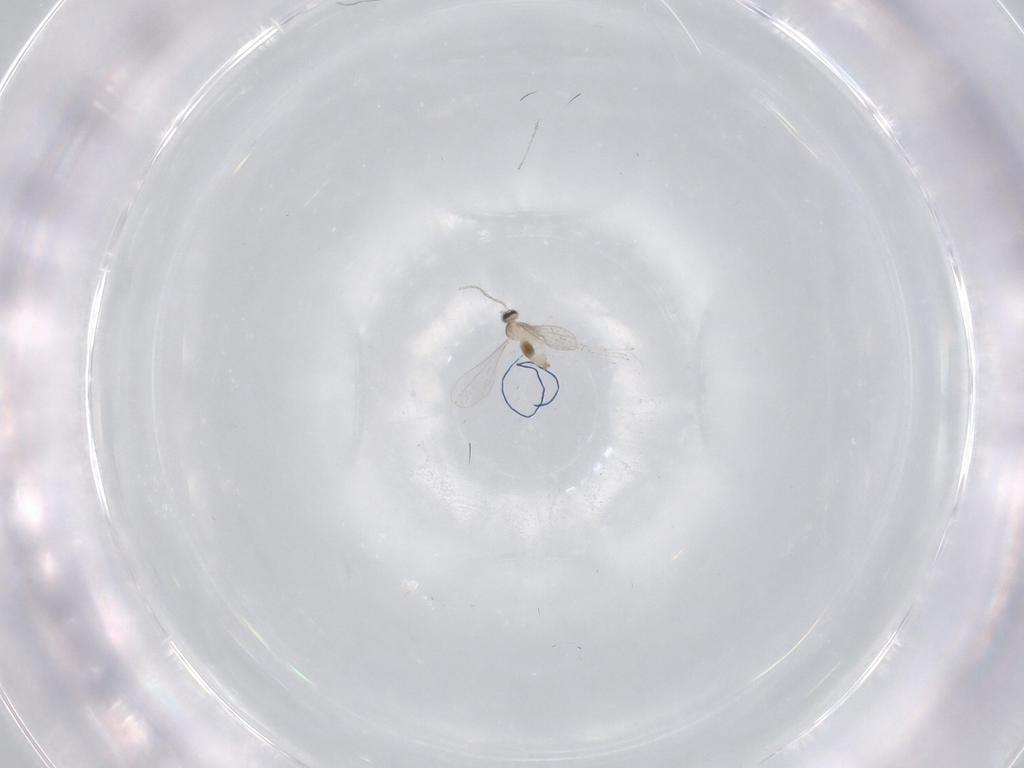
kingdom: Animalia
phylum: Arthropoda
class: Insecta
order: Diptera
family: Cecidomyiidae
